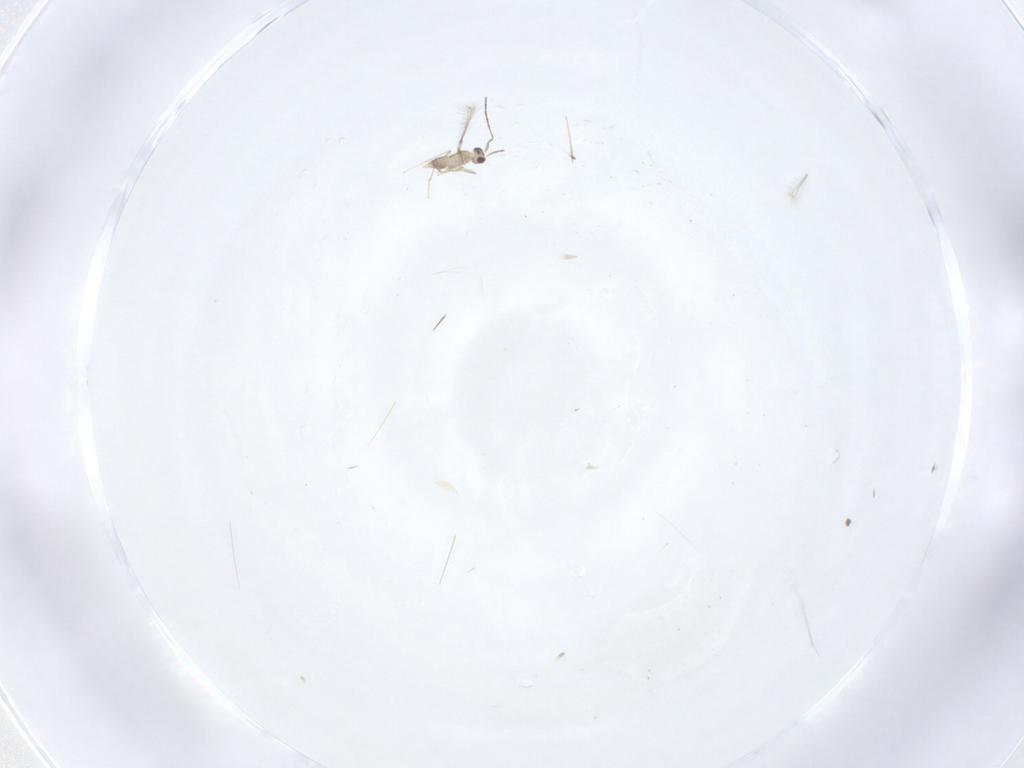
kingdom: Animalia
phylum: Arthropoda
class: Insecta
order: Hymenoptera
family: Mymaridae
